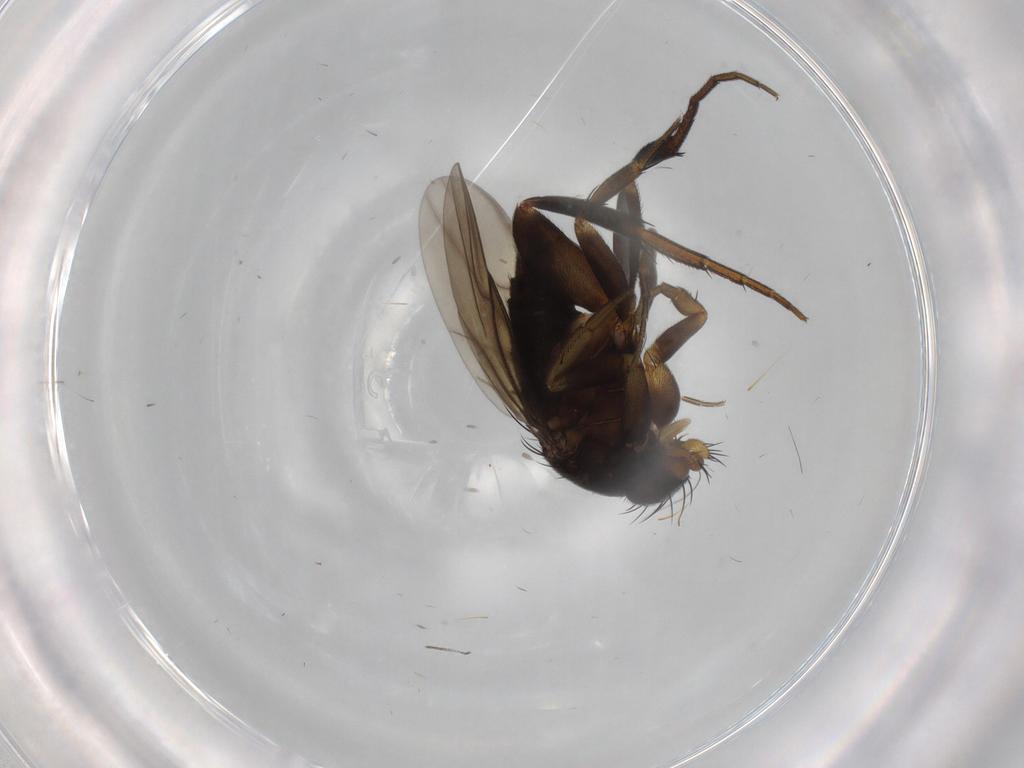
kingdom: Animalia
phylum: Arthropoda
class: Insecta
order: Diptera
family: Phoridae
